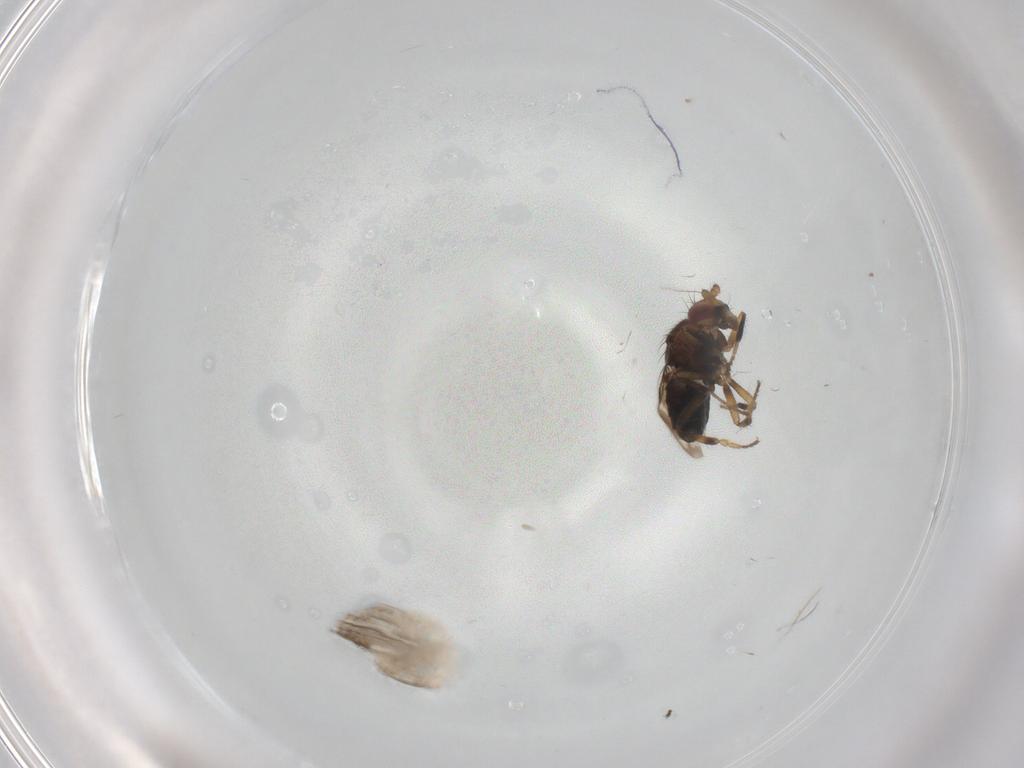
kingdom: Animalia
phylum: Arthropoda
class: Insecta
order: Diptera
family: Sphaeroceridae
